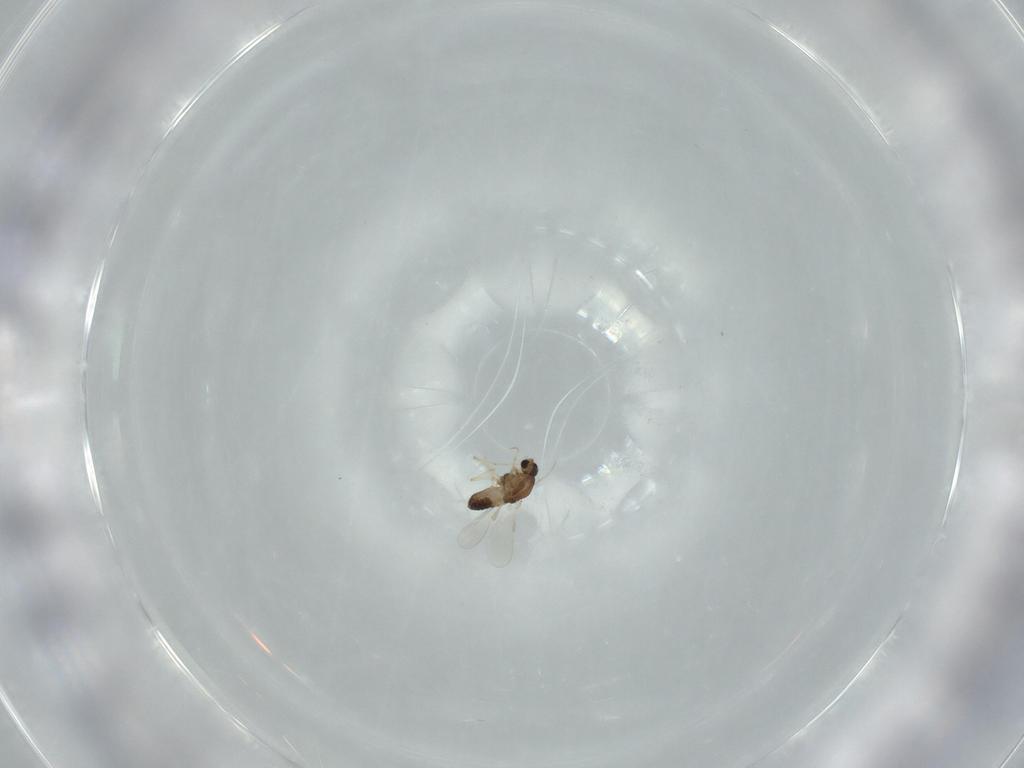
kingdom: Animalia
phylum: Arthropoda
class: Insecta
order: Diptera
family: Chironomidae
